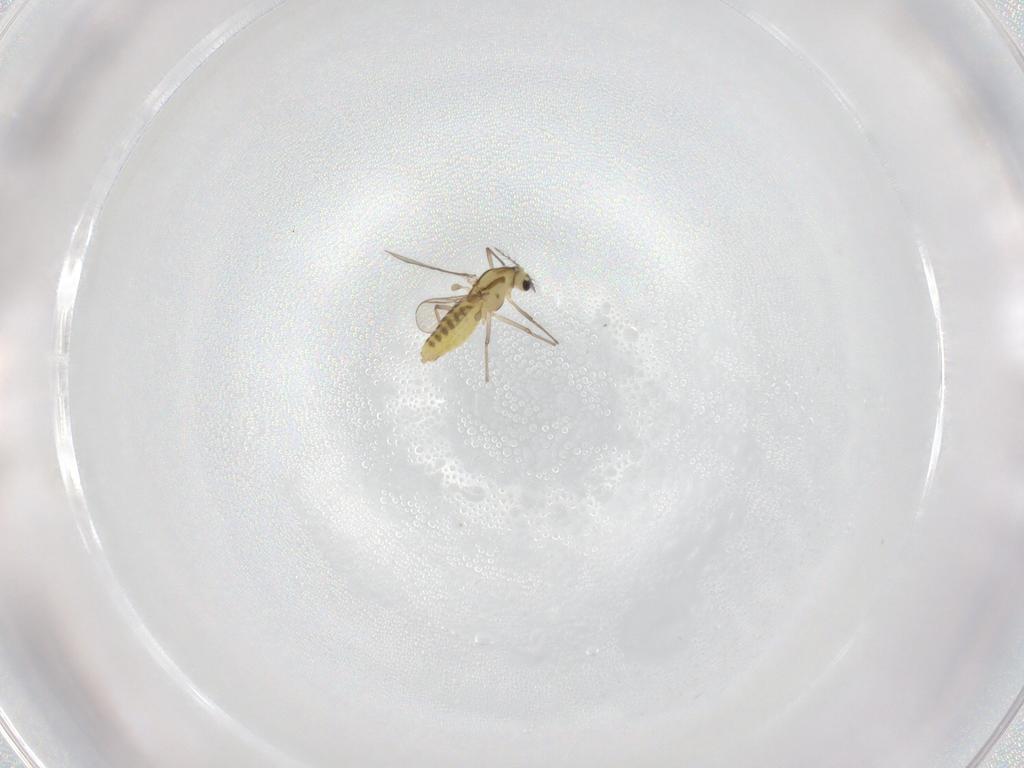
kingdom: Animalia
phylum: Arthropoda
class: Insecta
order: Diptera
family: Chironomidae
